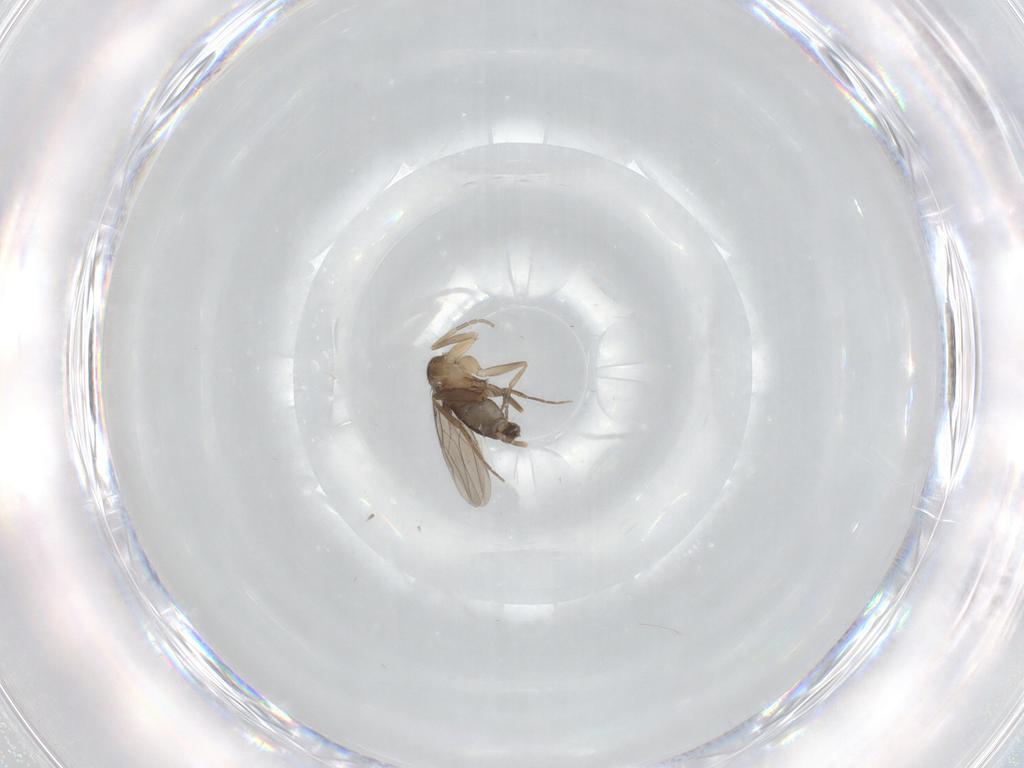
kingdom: Animalia
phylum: Arthropoda
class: Insecta
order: Diptera
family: Phoridae
